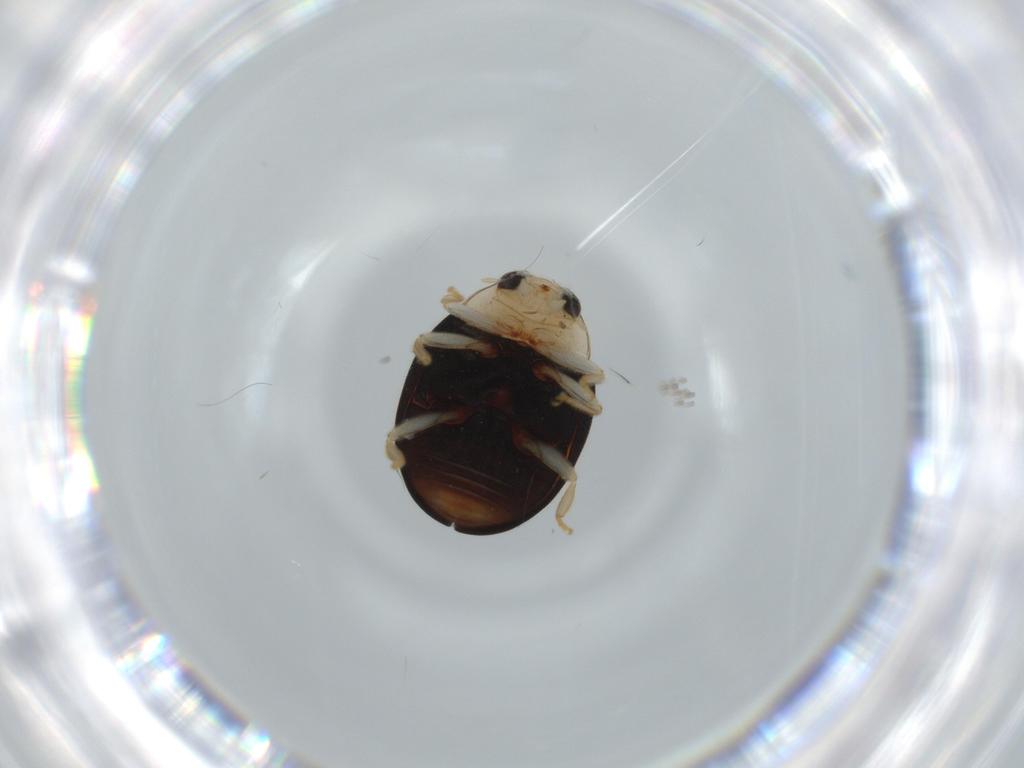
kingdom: Animalia
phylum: Arthropoda
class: Insecta
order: Coleoptera
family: Coccinellidae
